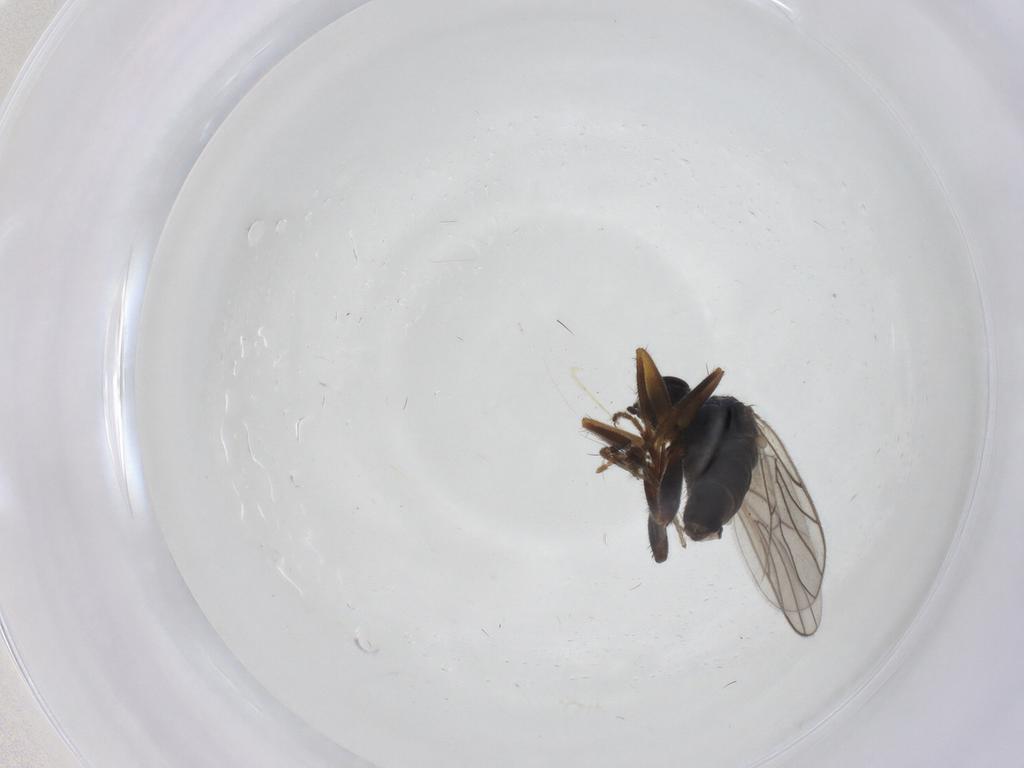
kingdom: Animalia
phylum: Arthropoda
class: Insecta
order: Diptera
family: Hybotidae
